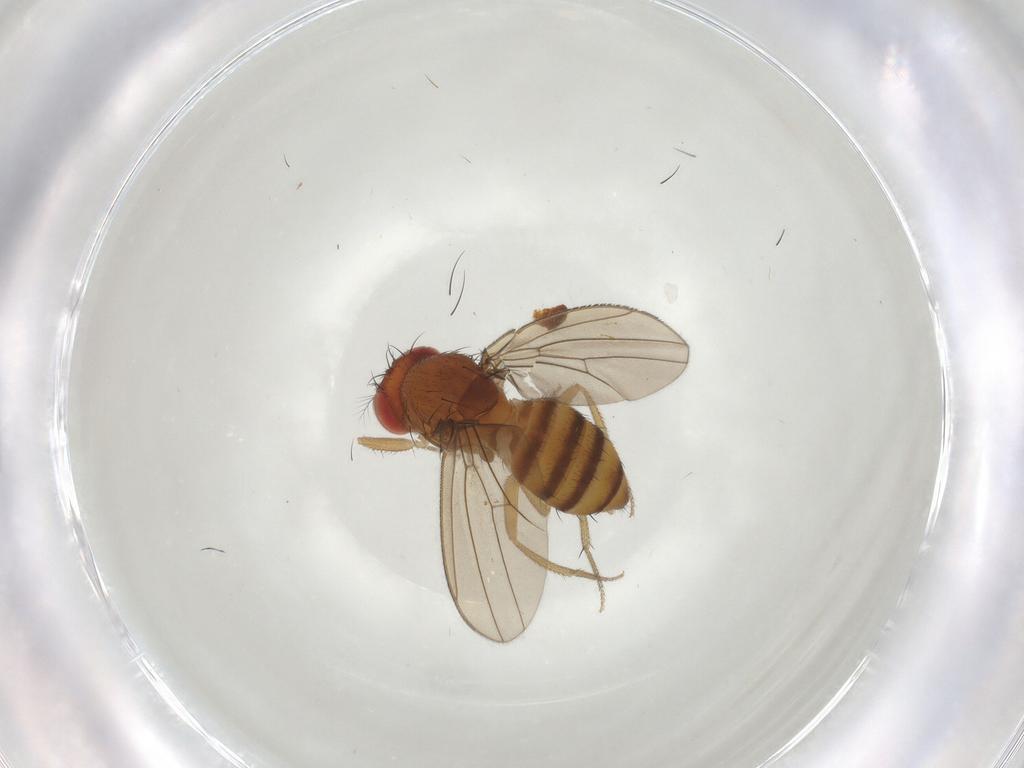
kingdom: Animalia
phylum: Arthropoda
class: Insecta
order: Diptera
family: Drosophilidae
